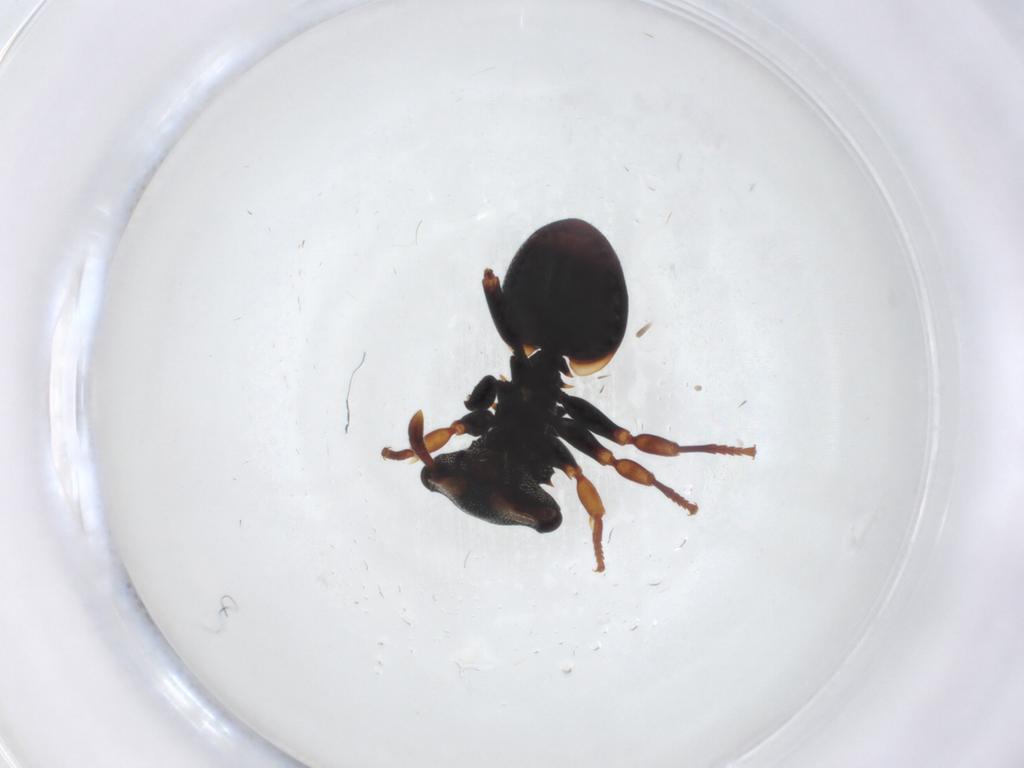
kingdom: Animalia
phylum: Arthropoda
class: Insecta
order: Hymenoptera
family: Formicidae
